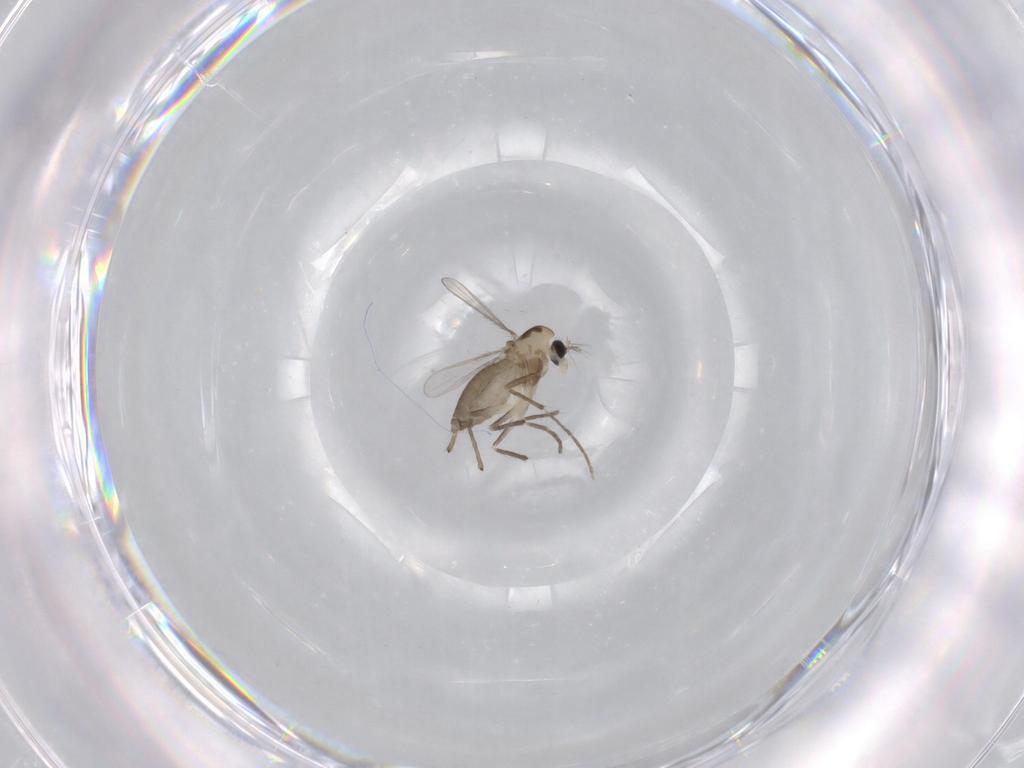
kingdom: Animalia
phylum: Arthropoda
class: Insecta
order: Diptera
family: Chironomidae
